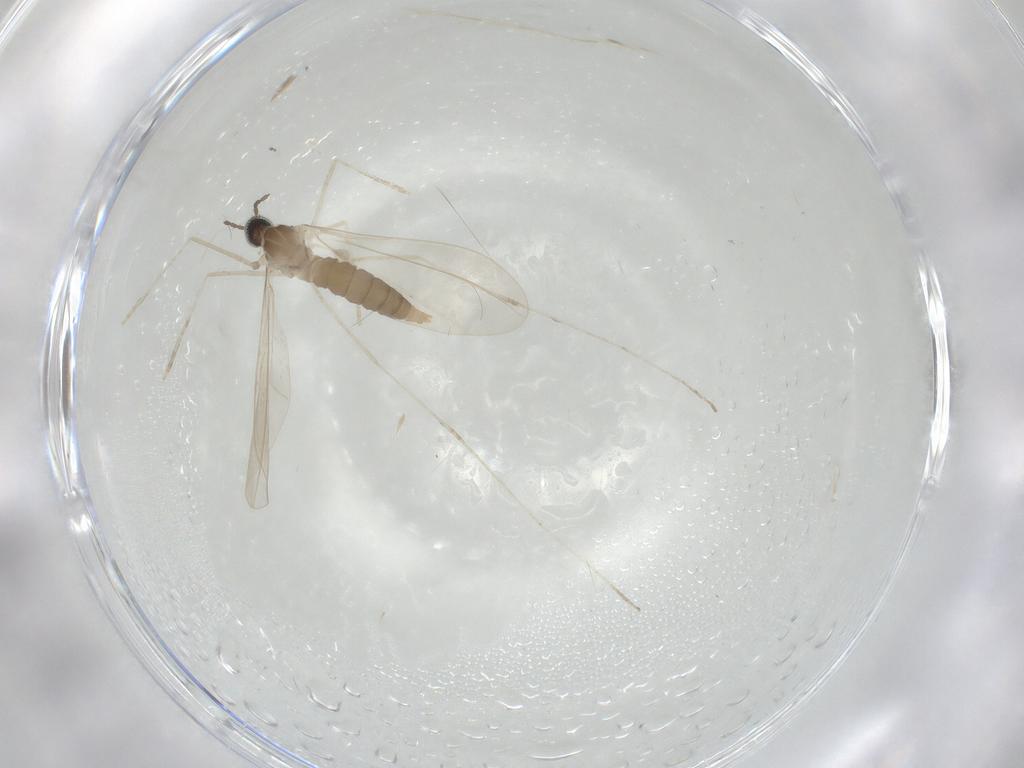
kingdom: Animalia
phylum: Arthropoda
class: Insecta
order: Diptera
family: Cecidomyiidae
